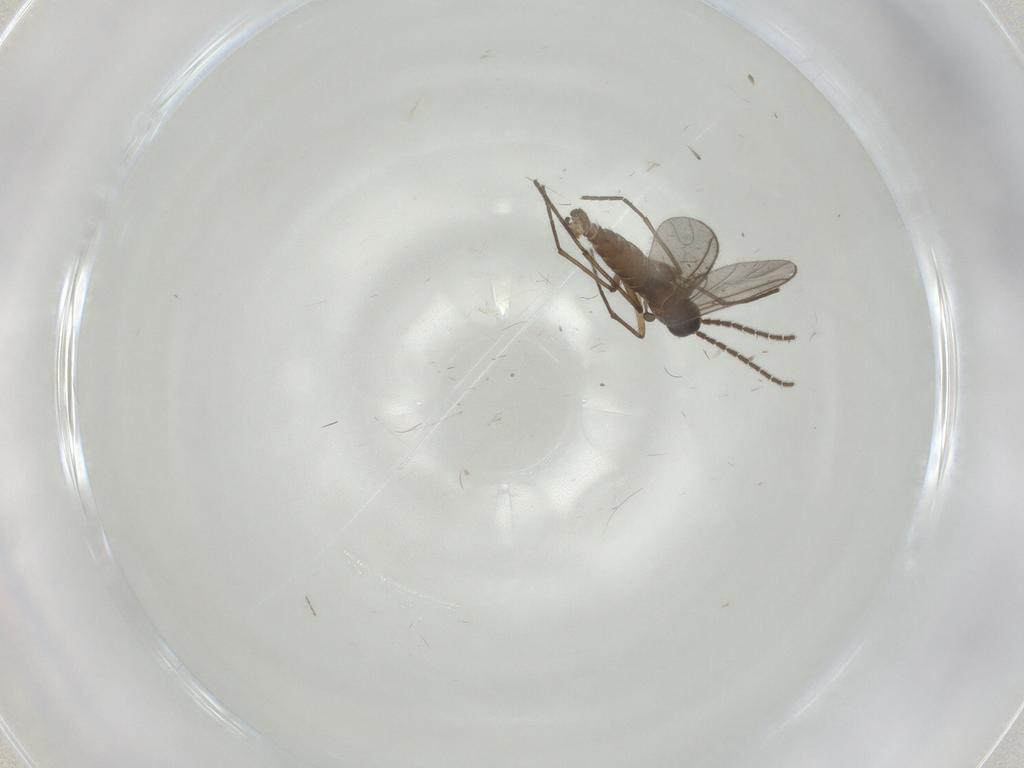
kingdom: Animalia
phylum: Arthropoda
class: Insecta
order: Diptera
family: Sciaridae
